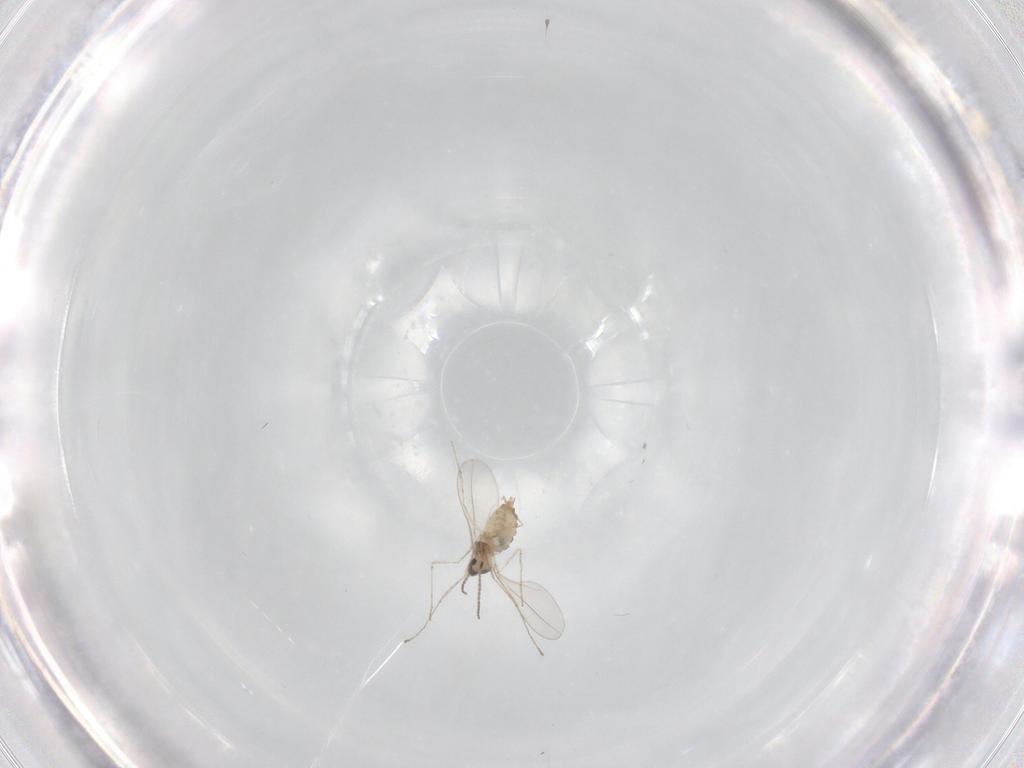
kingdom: Animalia
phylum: Arthropoda
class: Insecta
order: Diptera
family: Cecidomyiidae
